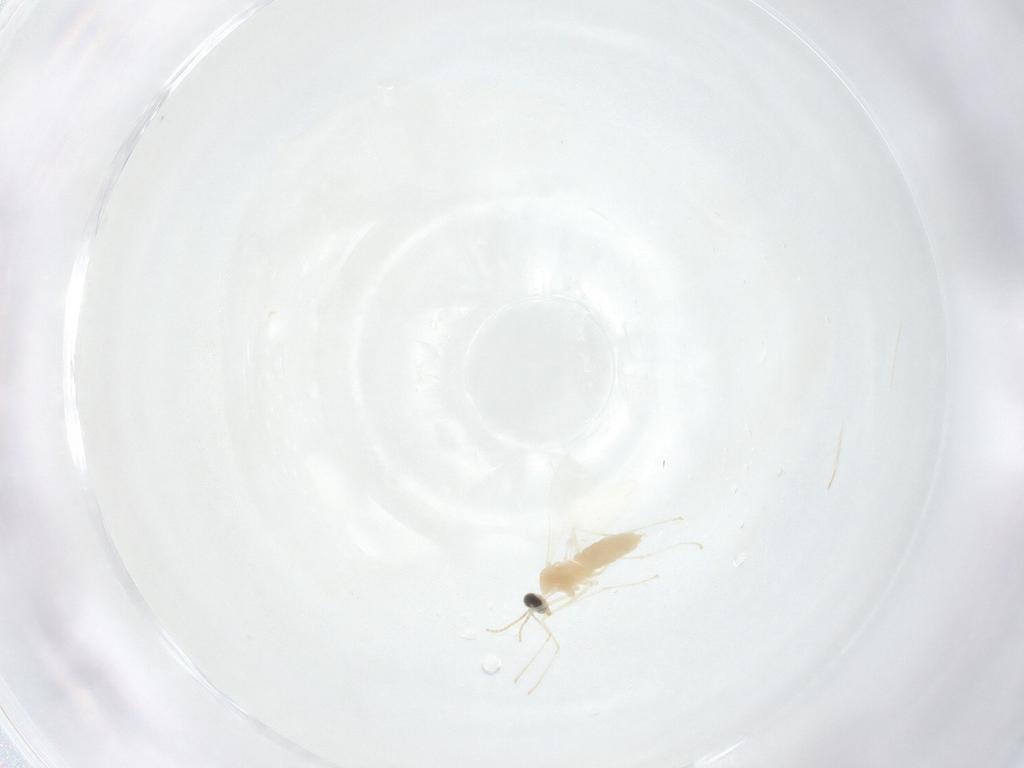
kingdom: Animalia
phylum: Arthropoda
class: Insecta
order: Diptera
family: Cecidomyiidae
